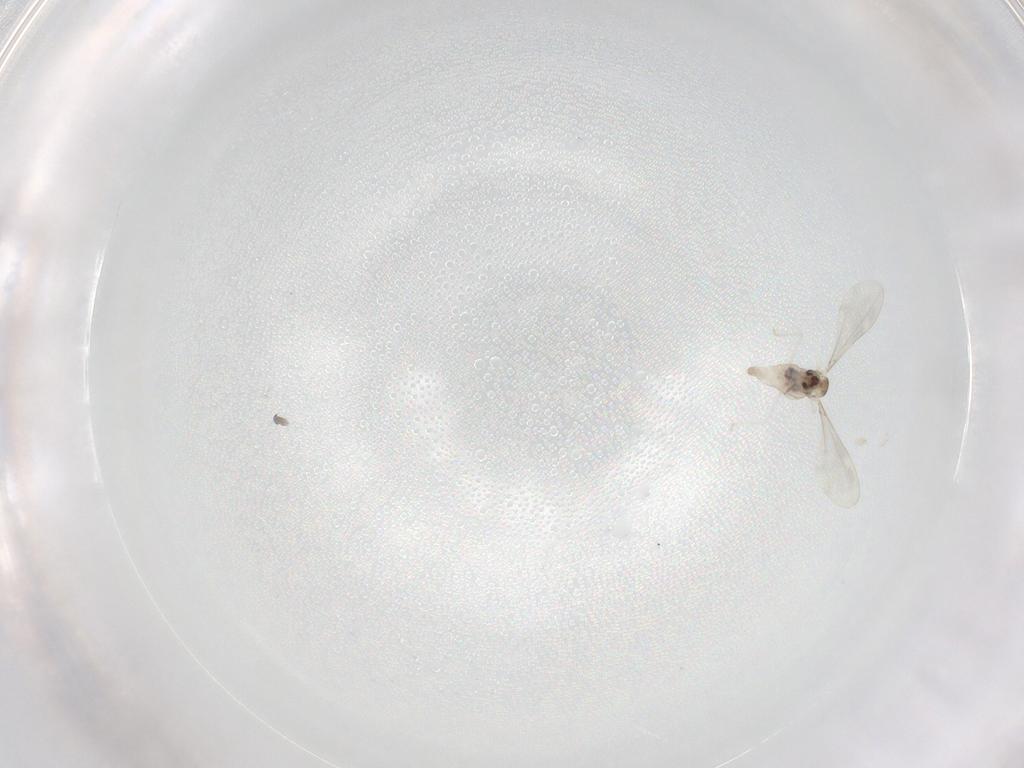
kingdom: Animalia
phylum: Arthropoda
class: Insecta
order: Diptera
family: Cecidomyiidae
